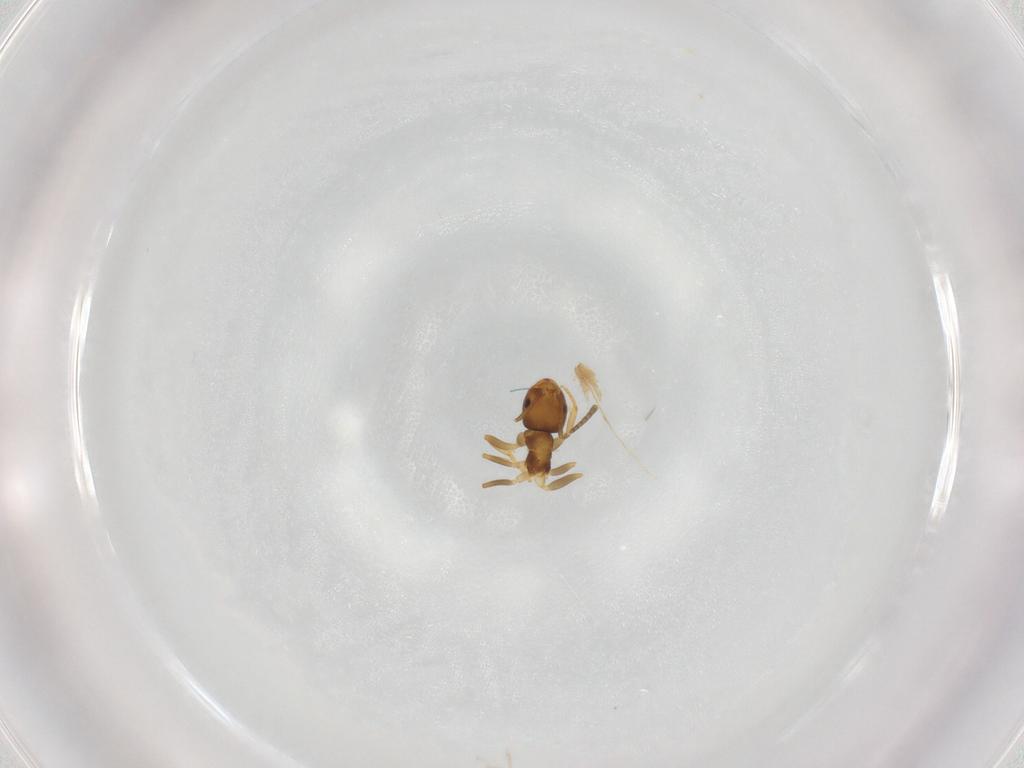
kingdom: Animalia
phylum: Arthropoda
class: Insecta
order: Hymenoptera
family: Formicidae
